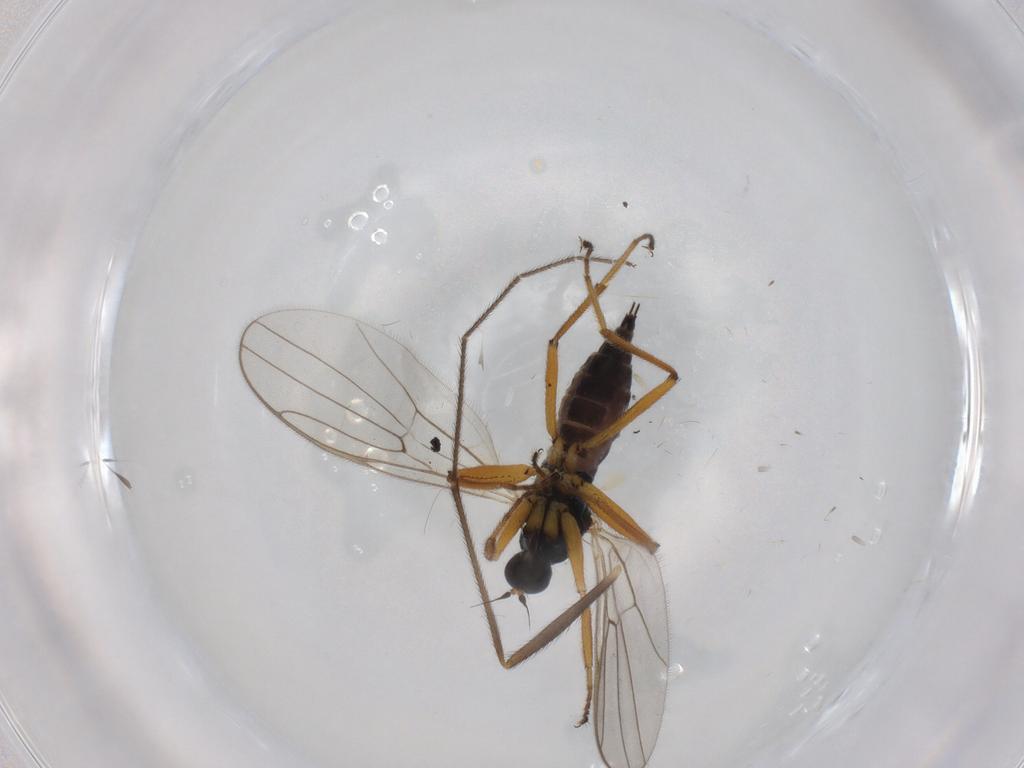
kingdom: Animalia
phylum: Arthropoda
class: Insecta
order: Diptera
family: Hybotidae
